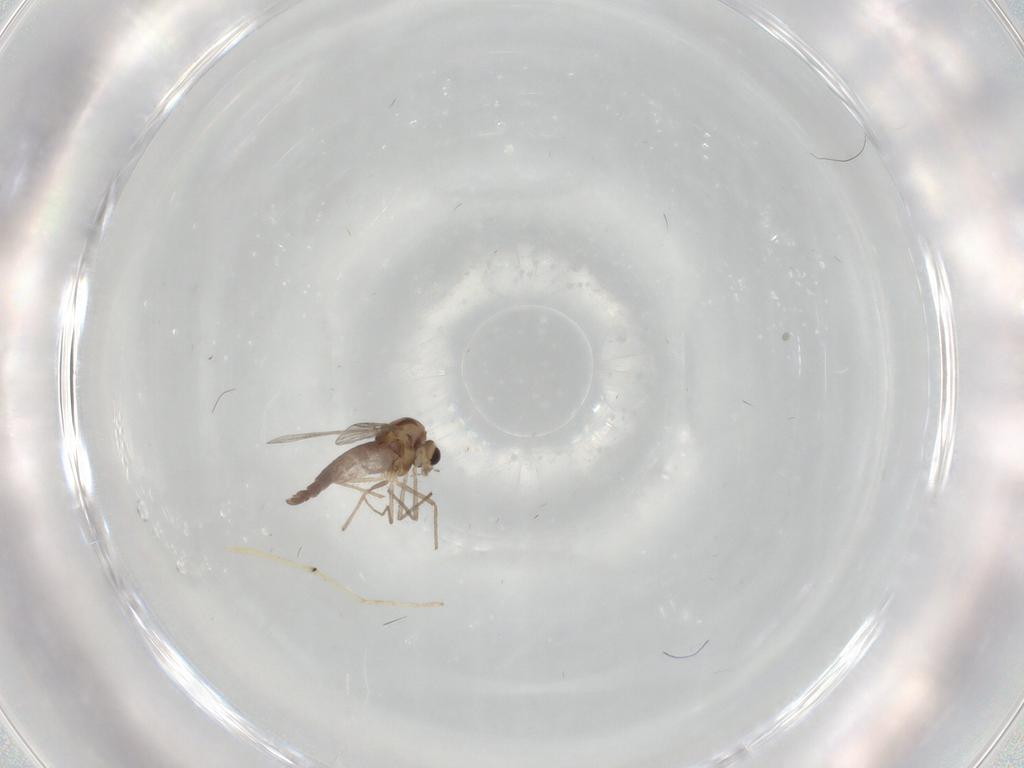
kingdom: Animalia
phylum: Arthropoda
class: Insecta
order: Diptera
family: Chironomidae
